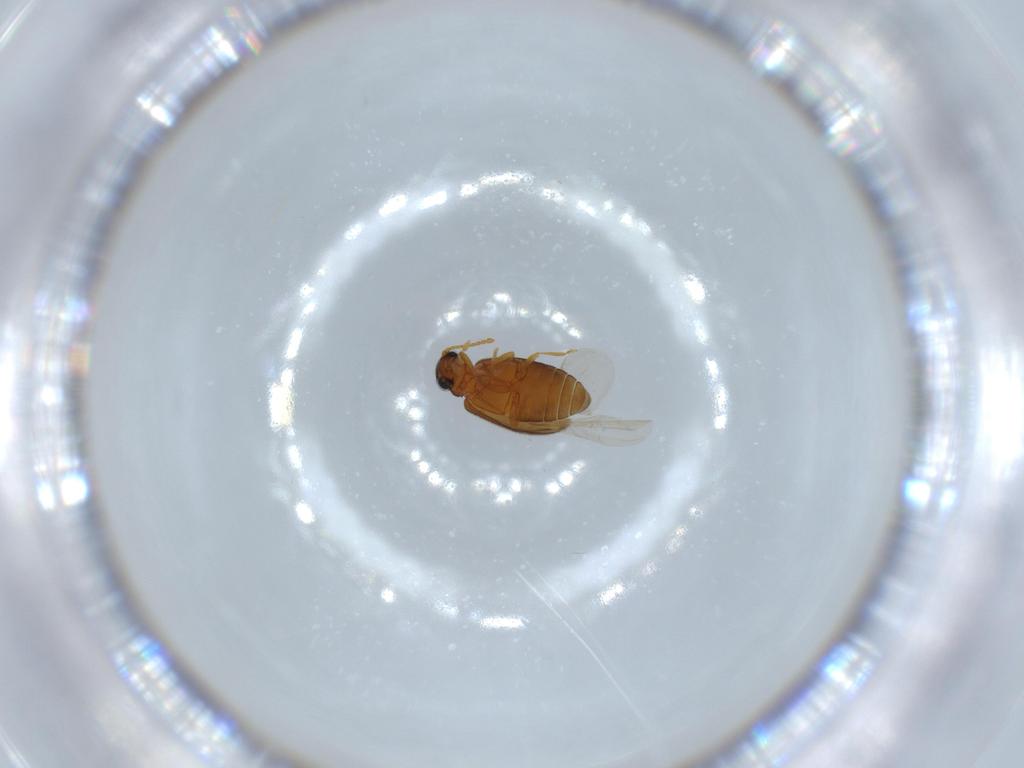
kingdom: Animalia
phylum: Arthropoda
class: Insecta
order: Coleoptera
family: Aderidae
